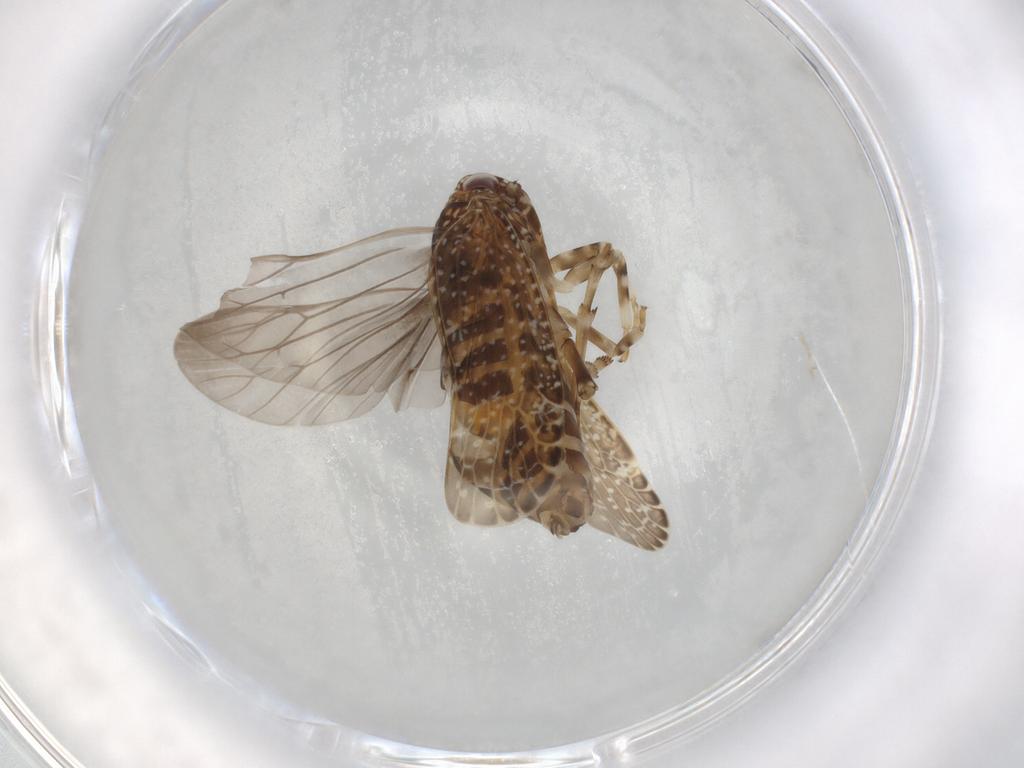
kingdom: Animalia
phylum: Arthropoda
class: Insecta
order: Hemiptera
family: Achilidae
